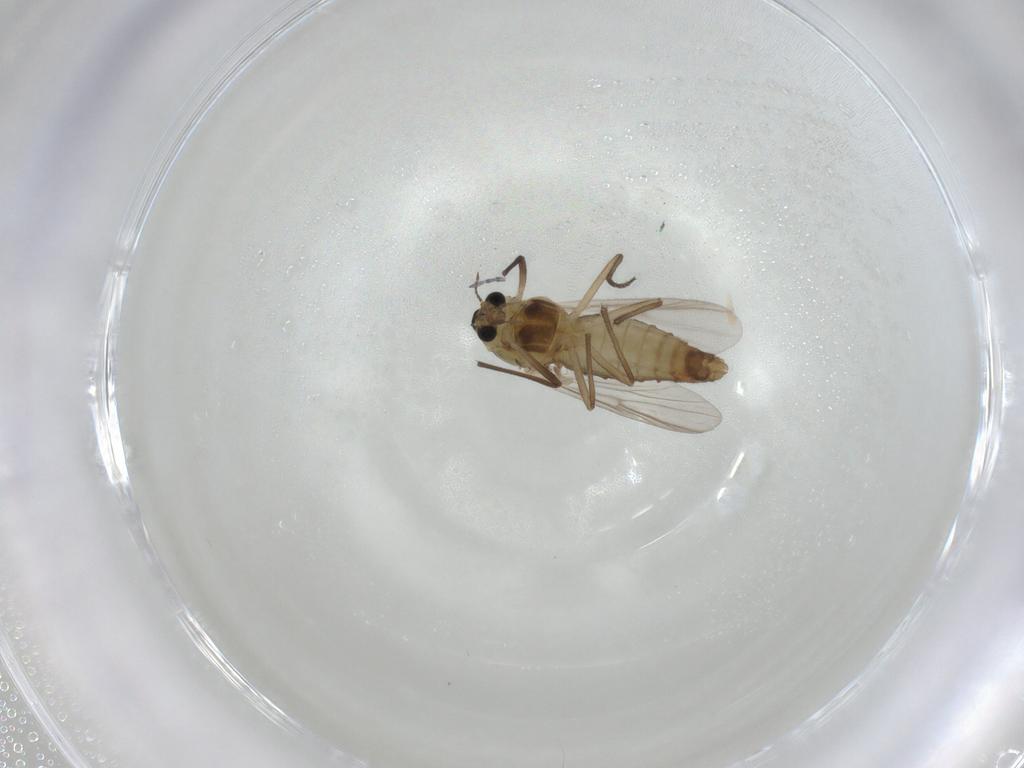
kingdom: Animalia
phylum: Arthropoda
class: Insecta
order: Diptera
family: Chironomidae
